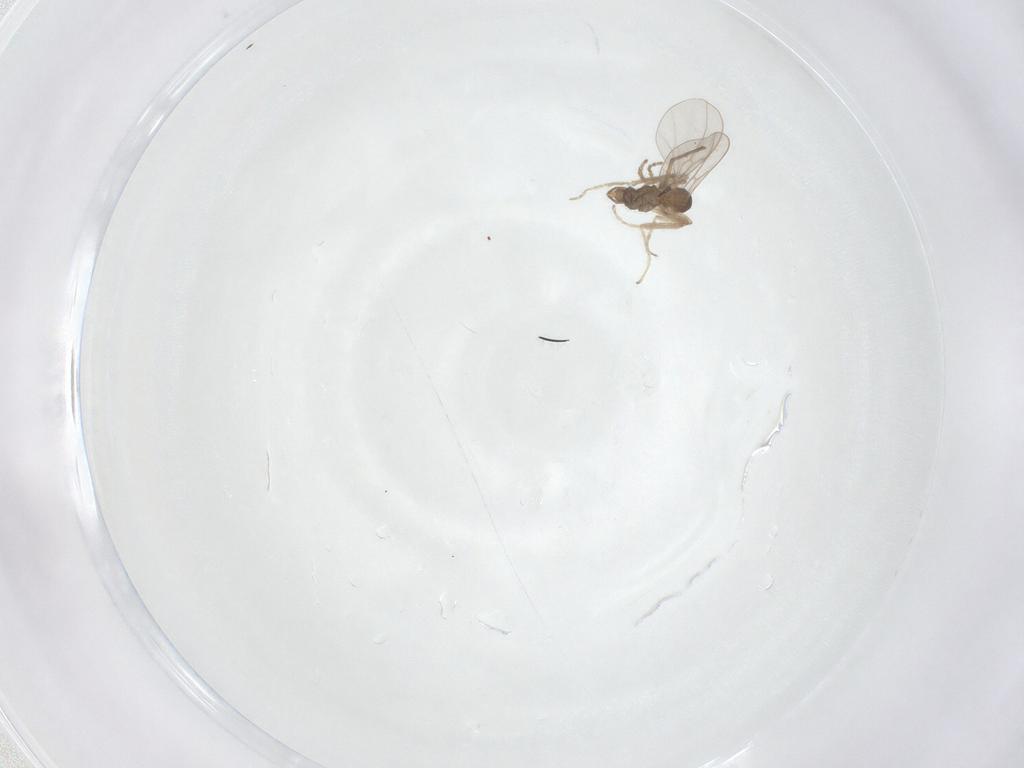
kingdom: Animalia
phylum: Arthropoda
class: Insecta
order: Diptera
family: Cecidomyiidae
